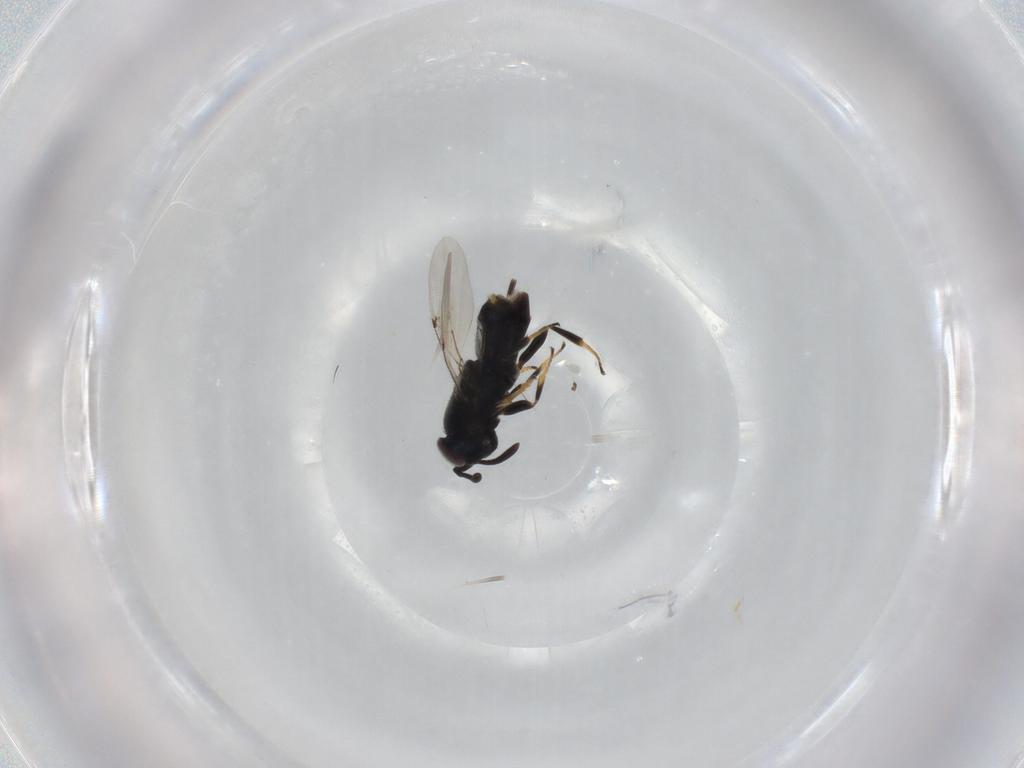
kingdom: Animalia
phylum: Arthropoda
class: Insecta
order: Hymenoptera
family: Encyrtidae
